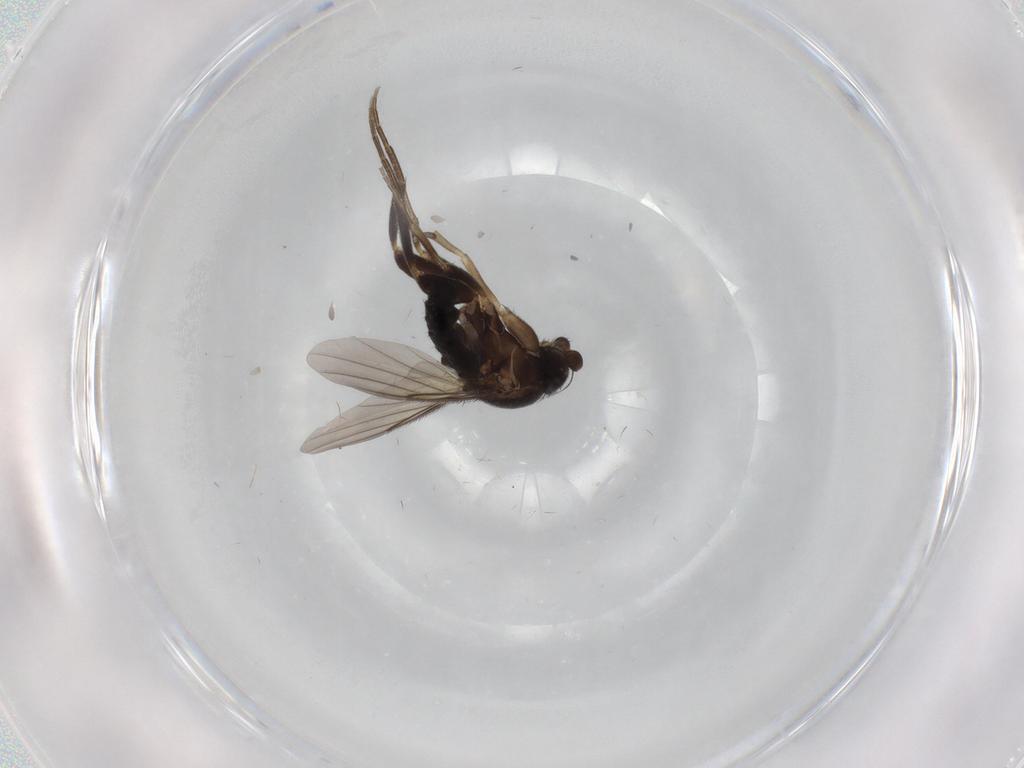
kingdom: Animalia
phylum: Arthropoda
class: Insecta
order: Diptera
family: Phoridae
